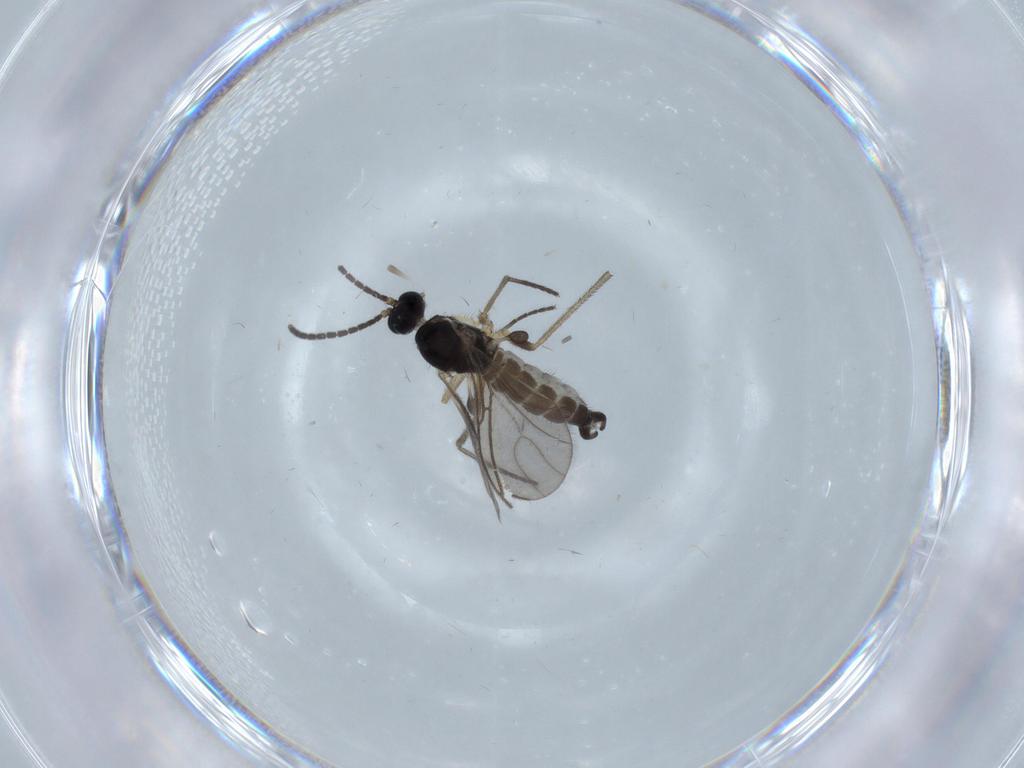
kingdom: Animalia
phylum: Arthropoda
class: Insecta
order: Diptera
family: Sciaridae
